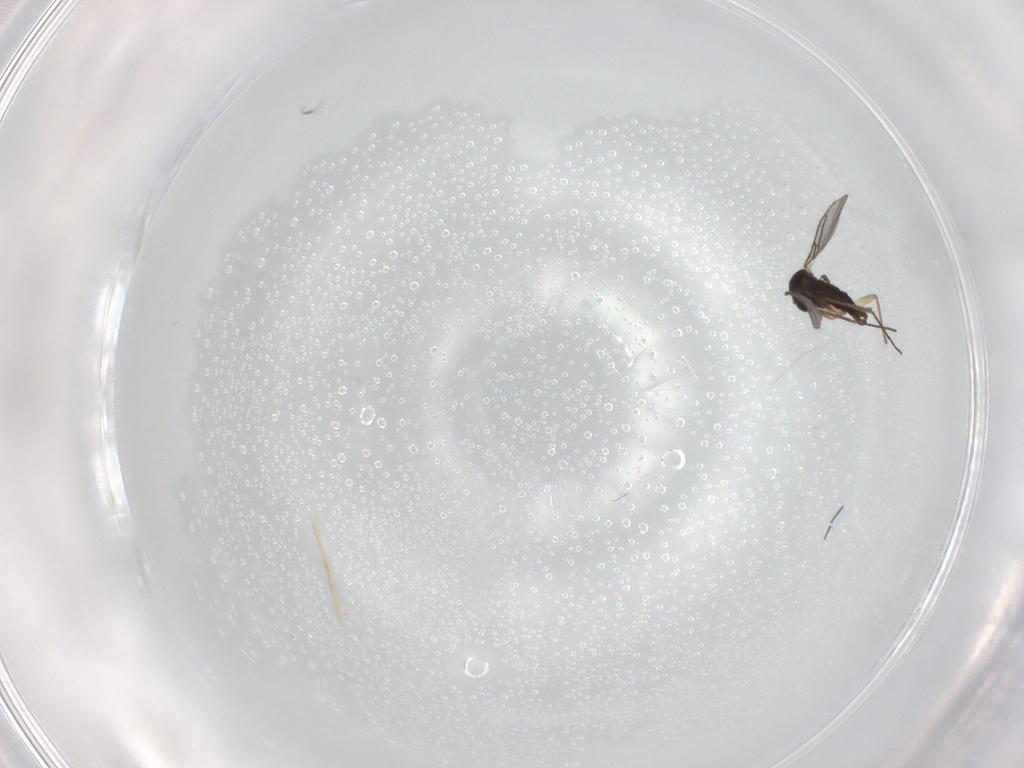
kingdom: Animalia
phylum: Arthropoda
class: Insecta
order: Diptera
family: Sciaridae
